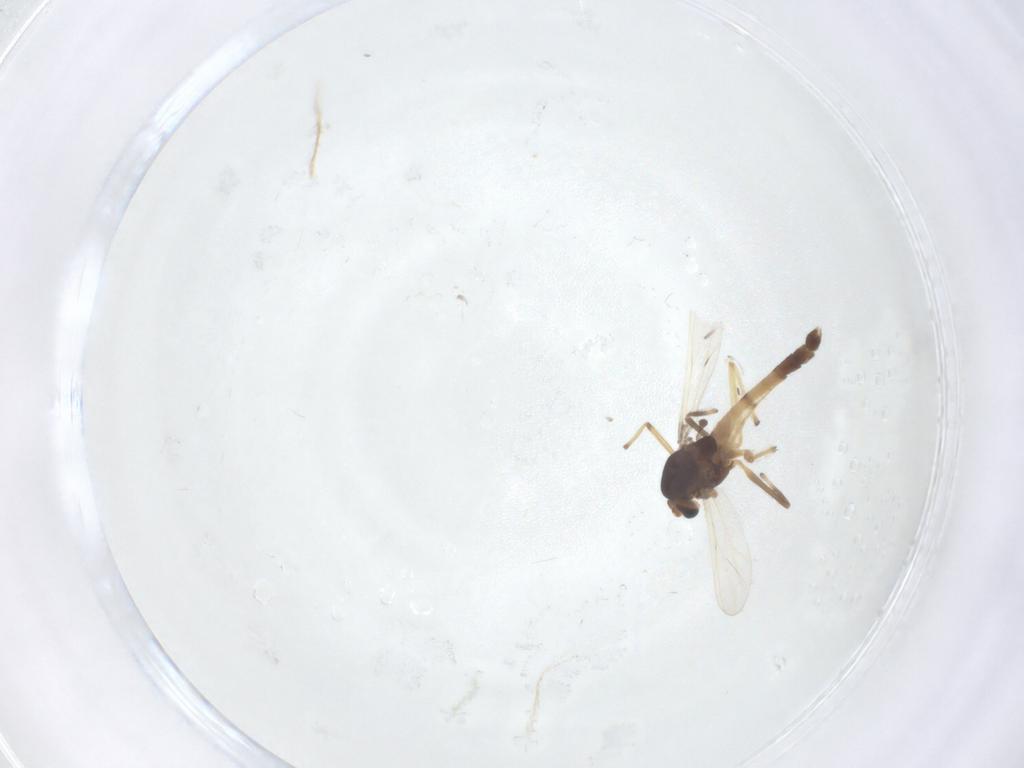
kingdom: Animalia
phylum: Arthropoda
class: Insecta
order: Diptera
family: Chironomidae
